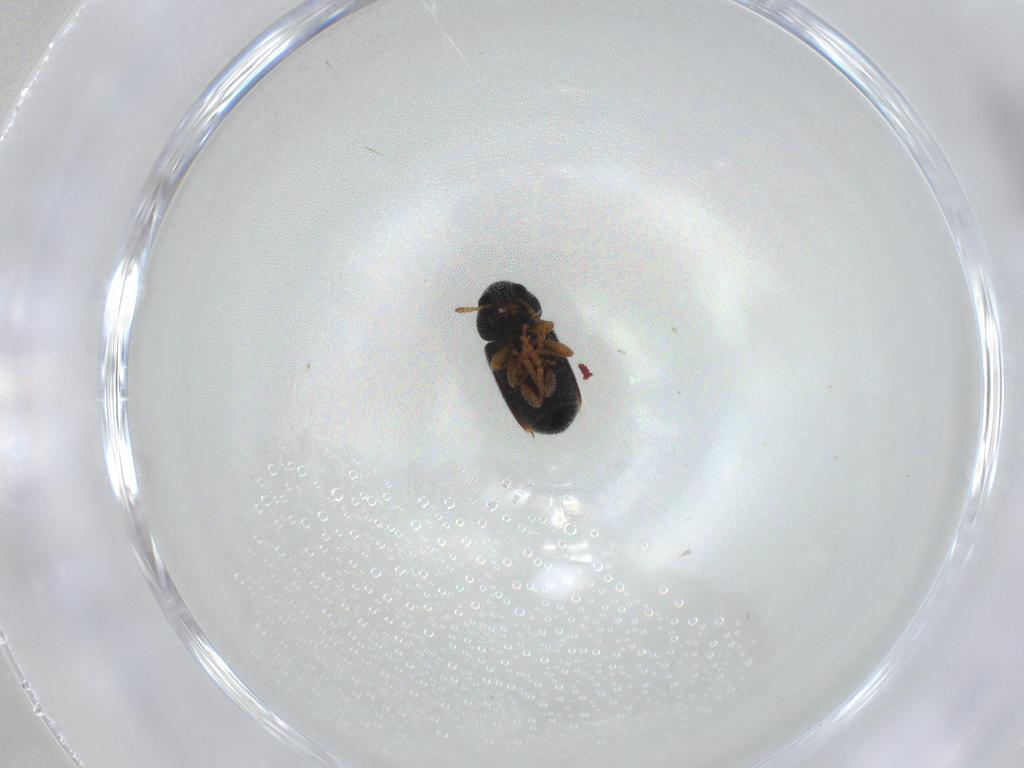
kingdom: Animalia
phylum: Arthropoda
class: Insecta
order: Coleoptera
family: Anthribidae
